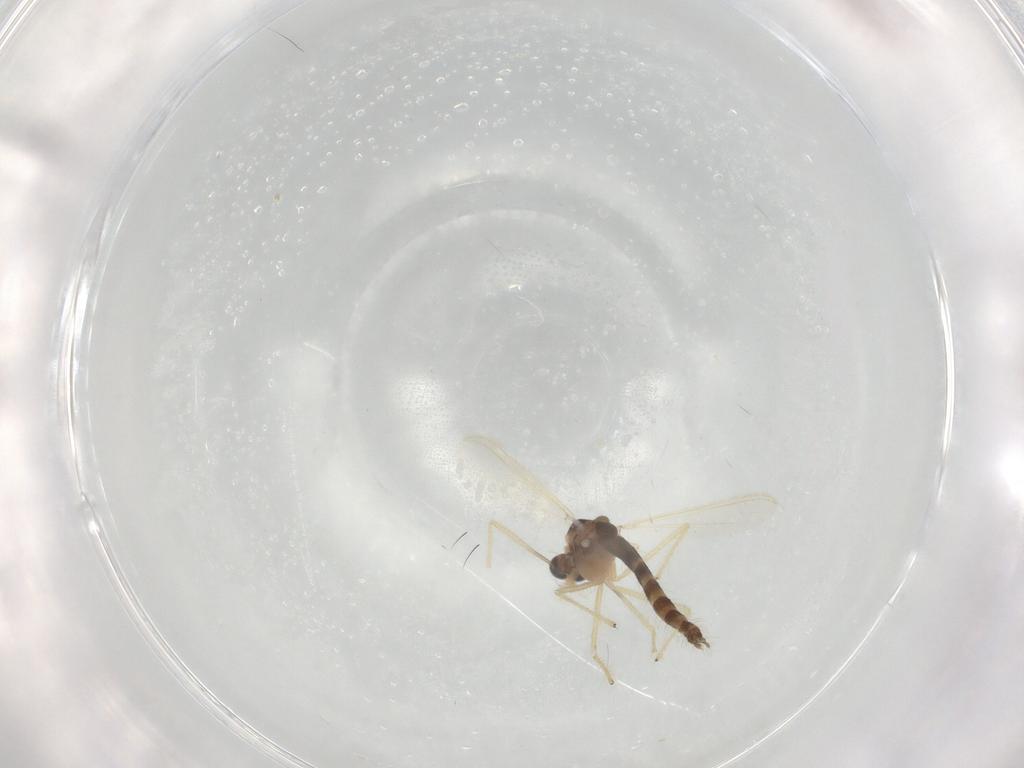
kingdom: Animalia
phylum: Arthropoda
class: Insecta
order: Diptera
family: Chironomidae
